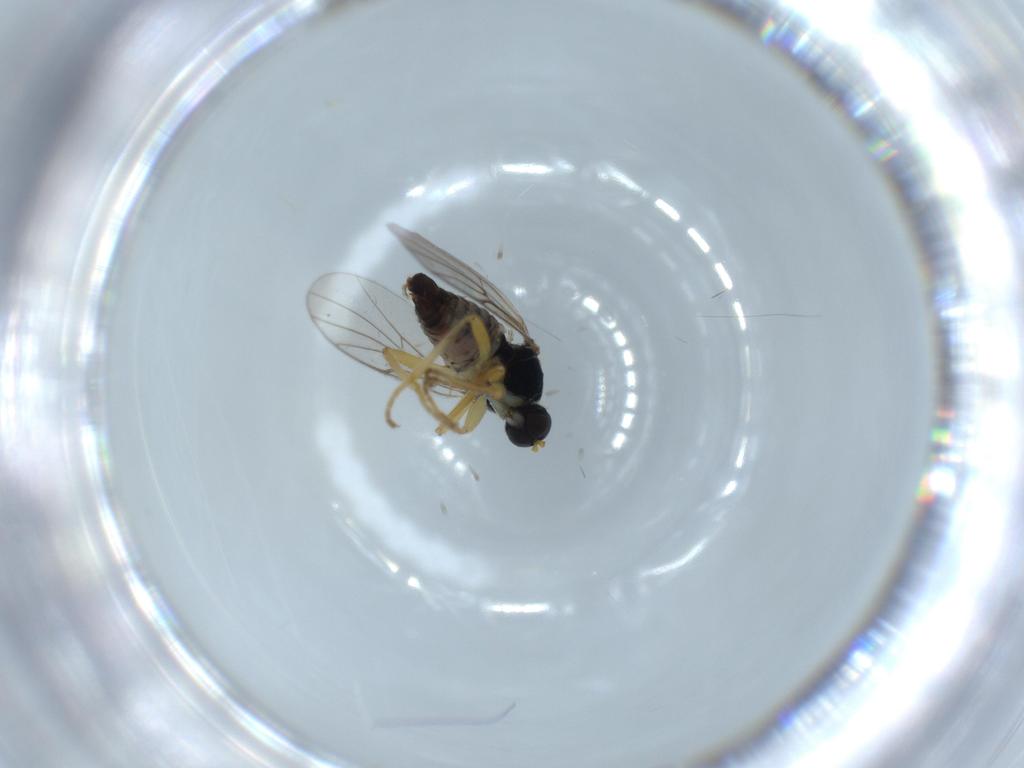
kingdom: Animalia
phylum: Arthropoda
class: Insecta
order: Diptera
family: Hybotidae
